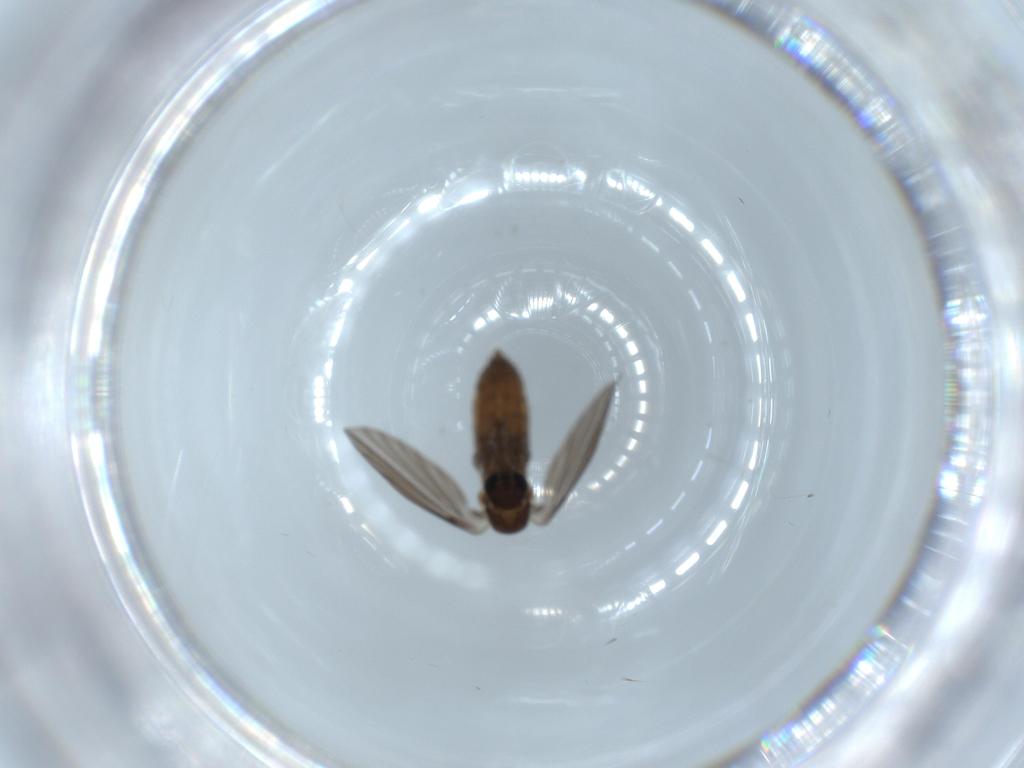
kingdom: Animalia
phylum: Arthropoda
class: Insecta
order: Diptera
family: Psychodidae
